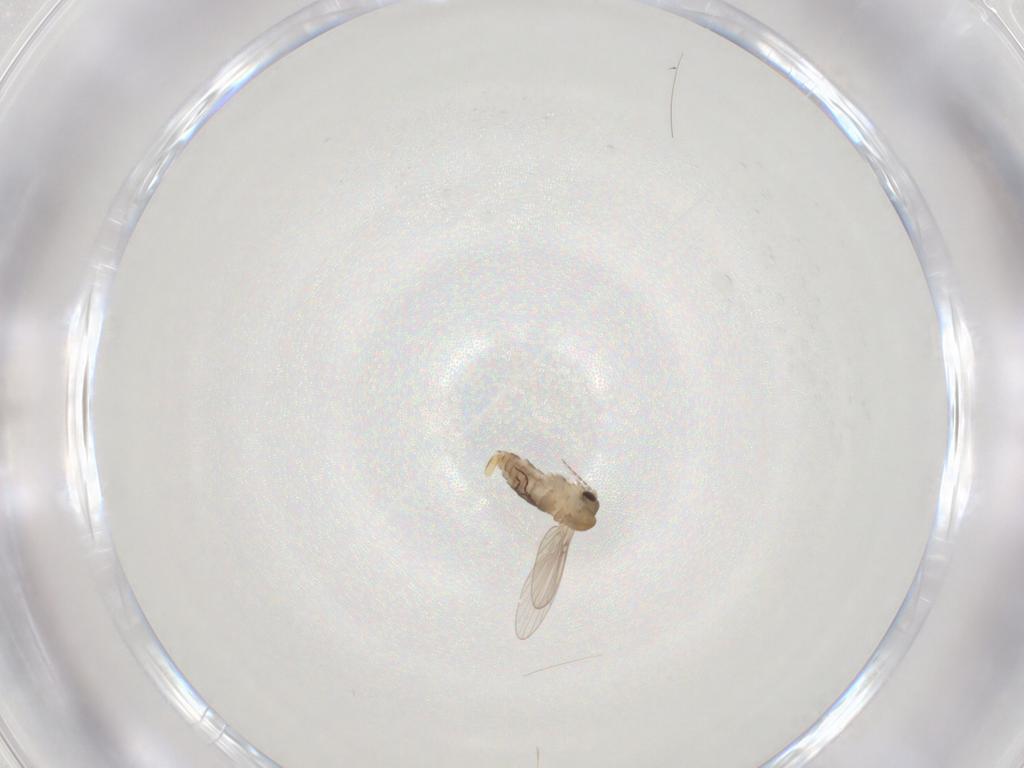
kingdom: Animalia
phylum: Arthropoda
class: Insecta
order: Diptera
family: Psychodidae
